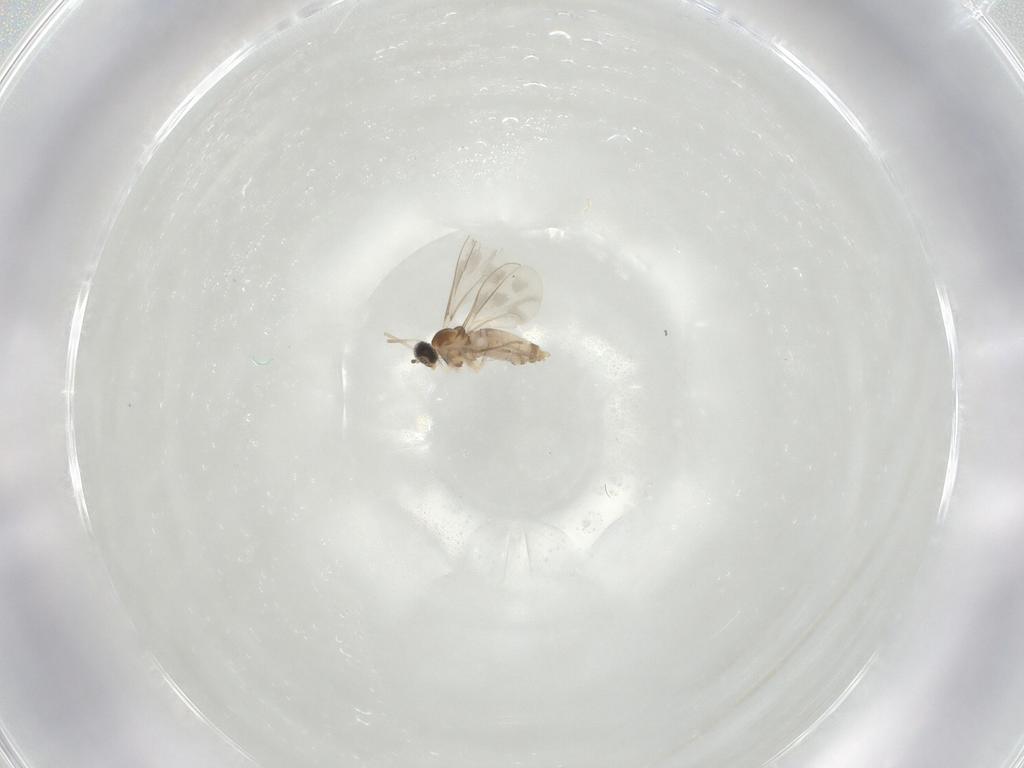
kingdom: Animalia
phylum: Arthropoda
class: Insecta
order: Diptera
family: Cecidomyiidae
